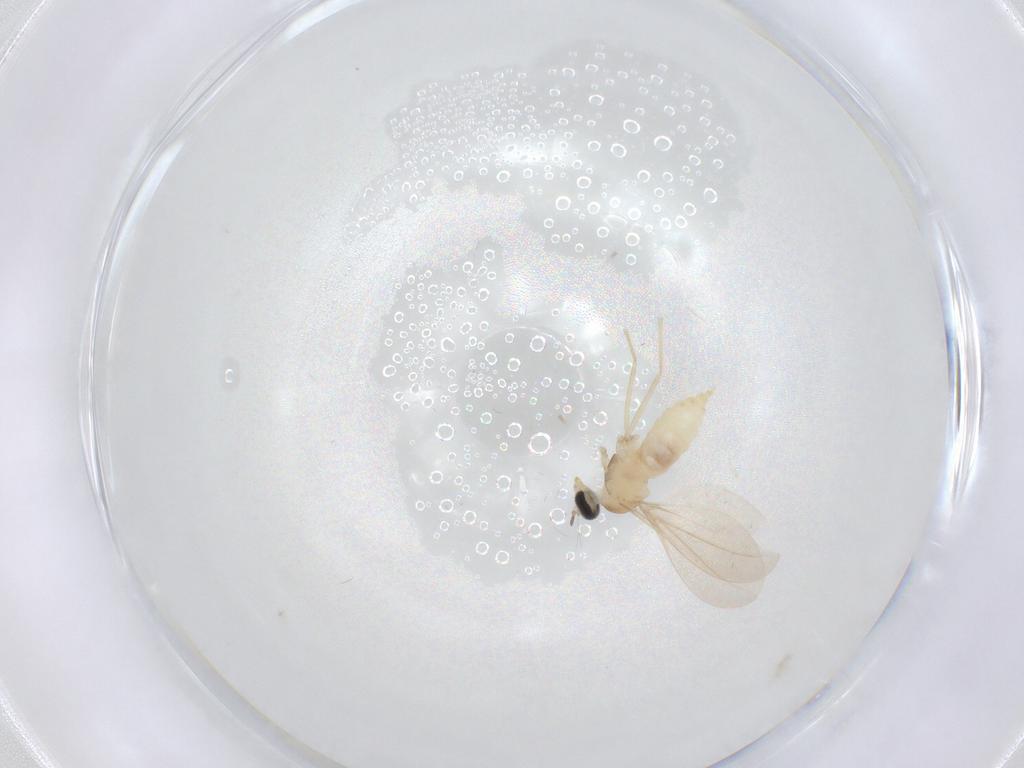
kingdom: Animalia
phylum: Arthropoda
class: Insecta
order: Diptera
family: Cecidomyiidae
